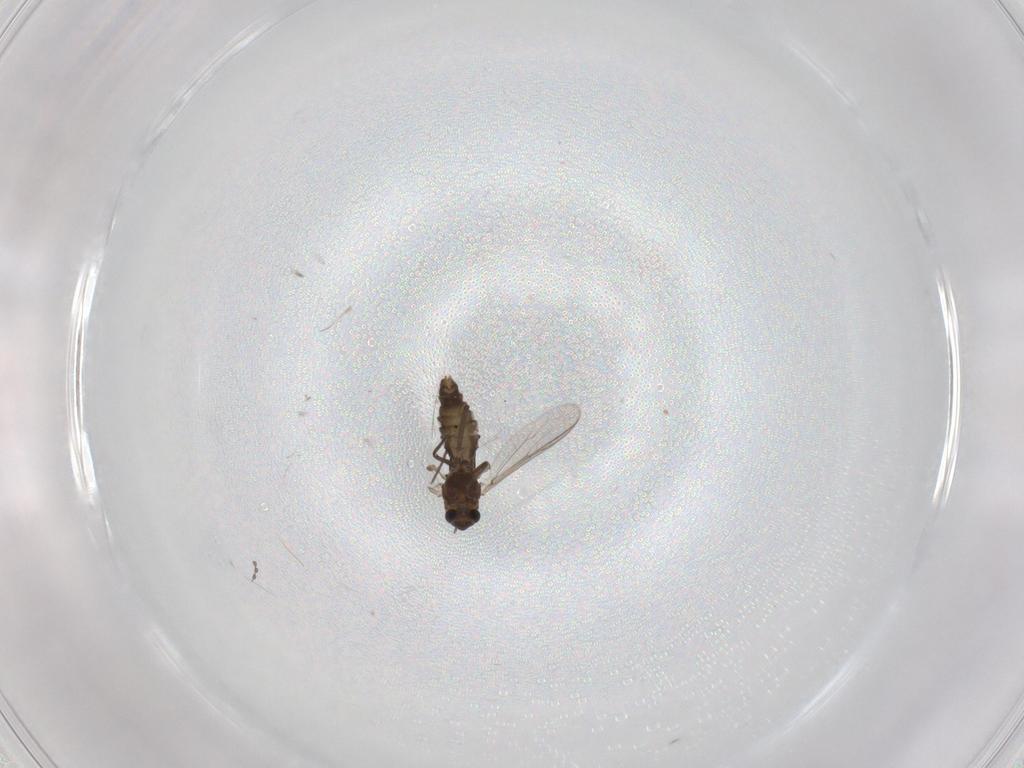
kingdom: Animalia
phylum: Arthropoda
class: Insecta
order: Diptera
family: Chironomidae
